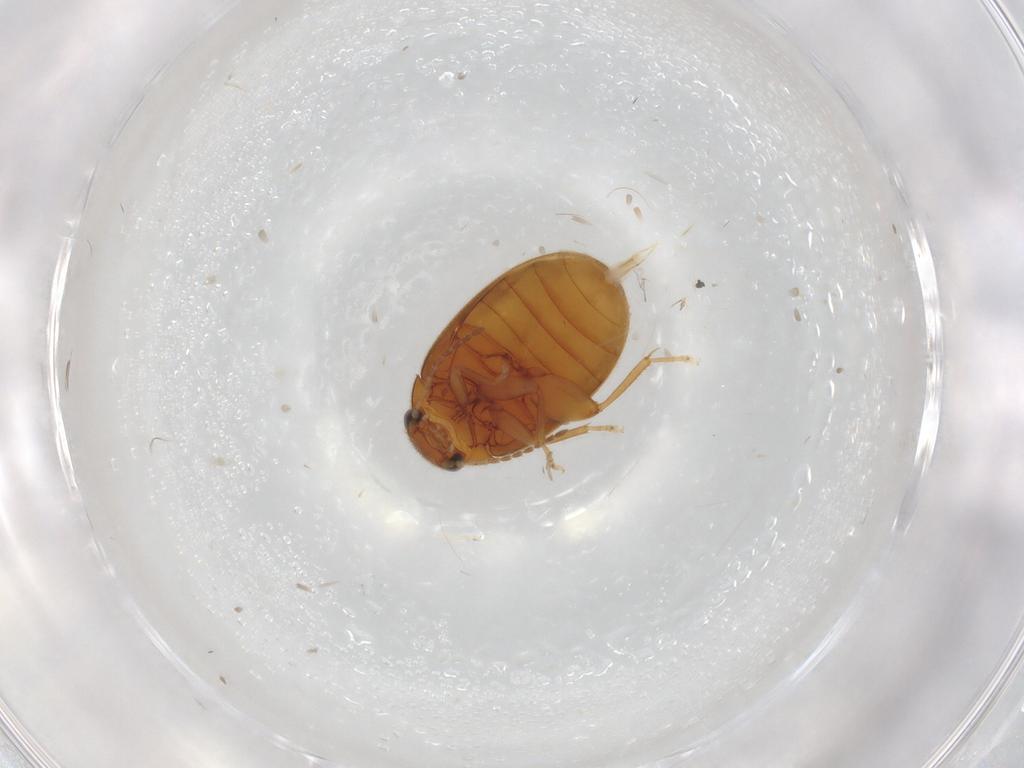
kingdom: Animalia
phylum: Arthropoda
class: Insecta
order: Coleoptera
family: Scirtidae
